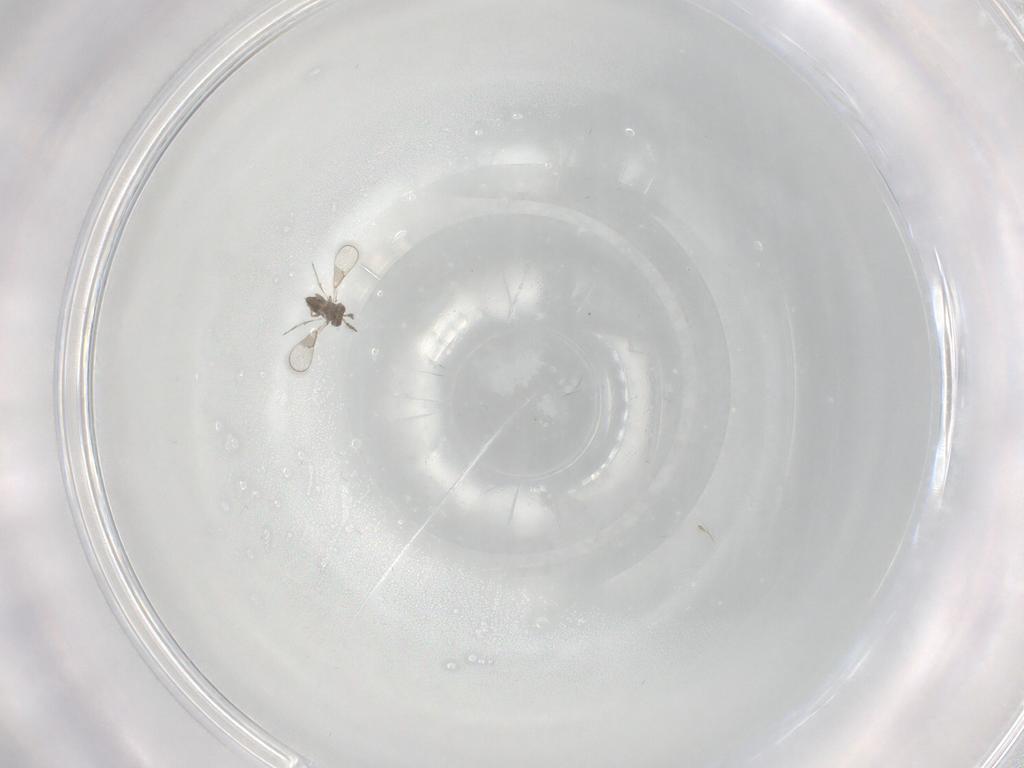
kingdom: Animalia
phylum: Arthropoda
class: Insecta
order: Hymenoptera
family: Trichogrammatidae
